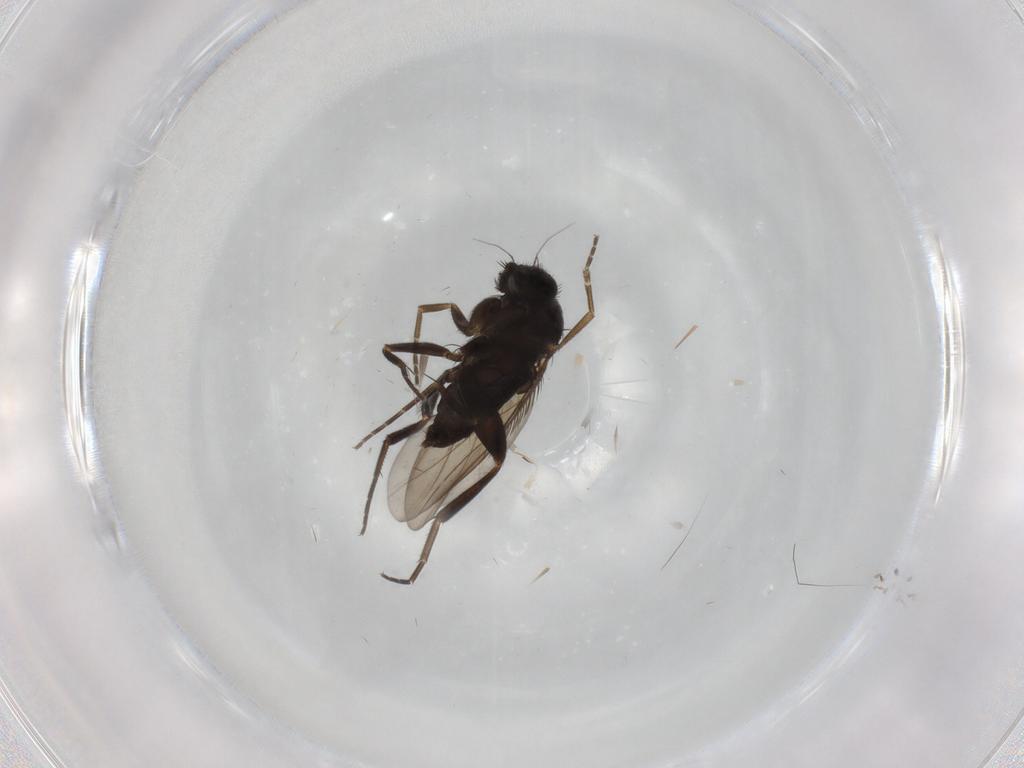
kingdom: Animalia
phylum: Arthropoda
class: Insecta
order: Diptera
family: Phoridae
